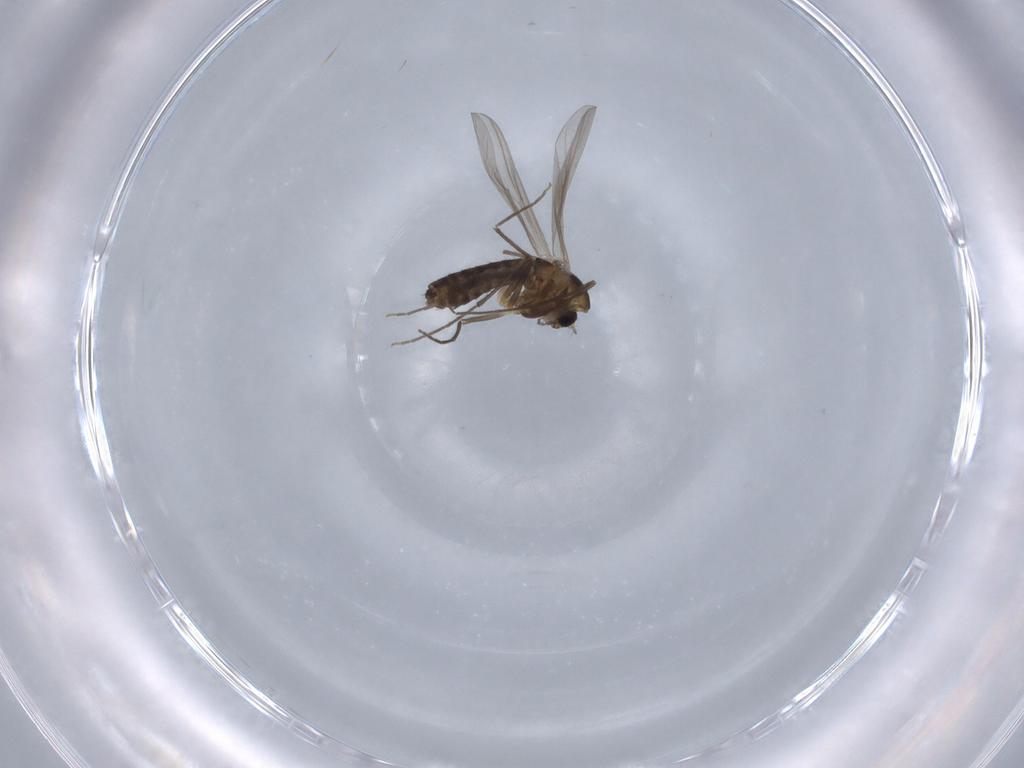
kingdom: Animalia
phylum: Arthropoda
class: Insecta
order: Diptera
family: Chironomidae
